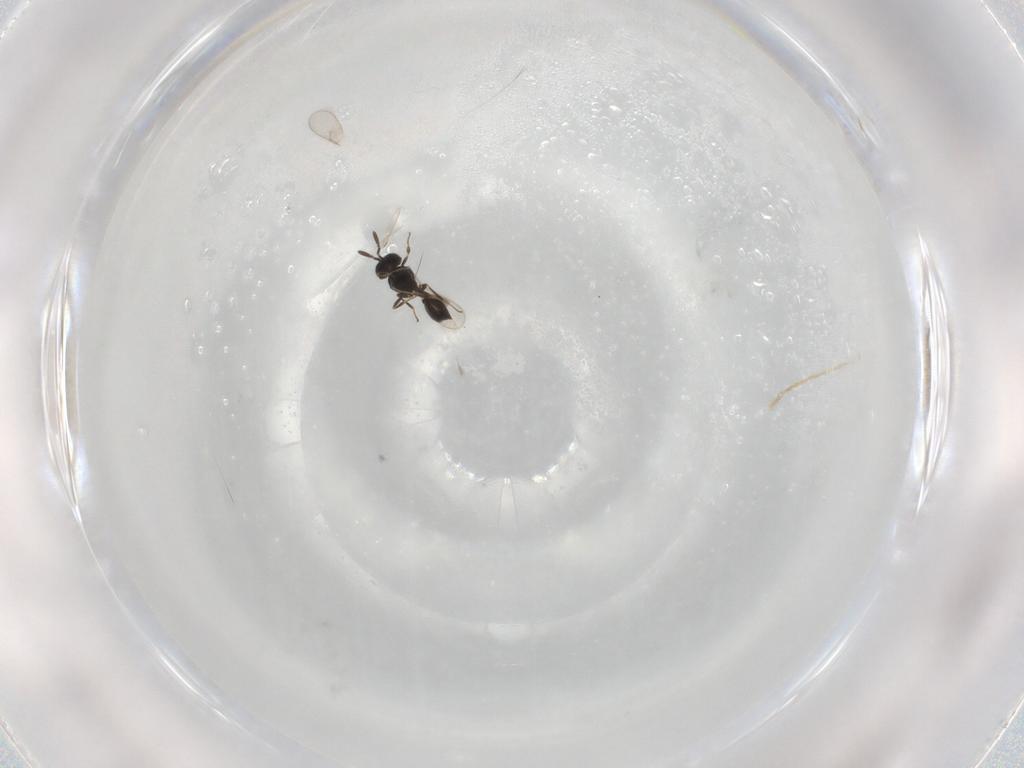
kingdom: Animalia
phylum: Arthropoda
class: Insecta
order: Hymenoptera
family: Scelionidae
